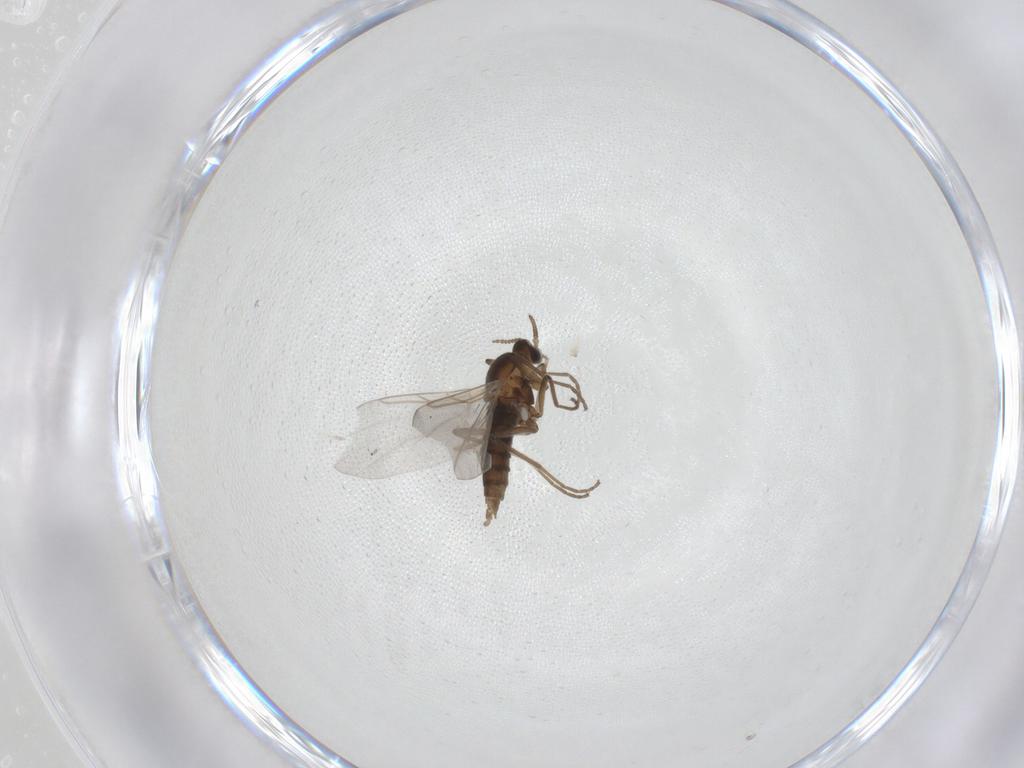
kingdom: Animalia
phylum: Arthropoda
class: Insecta
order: Diptera
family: Cecidomyiidae
